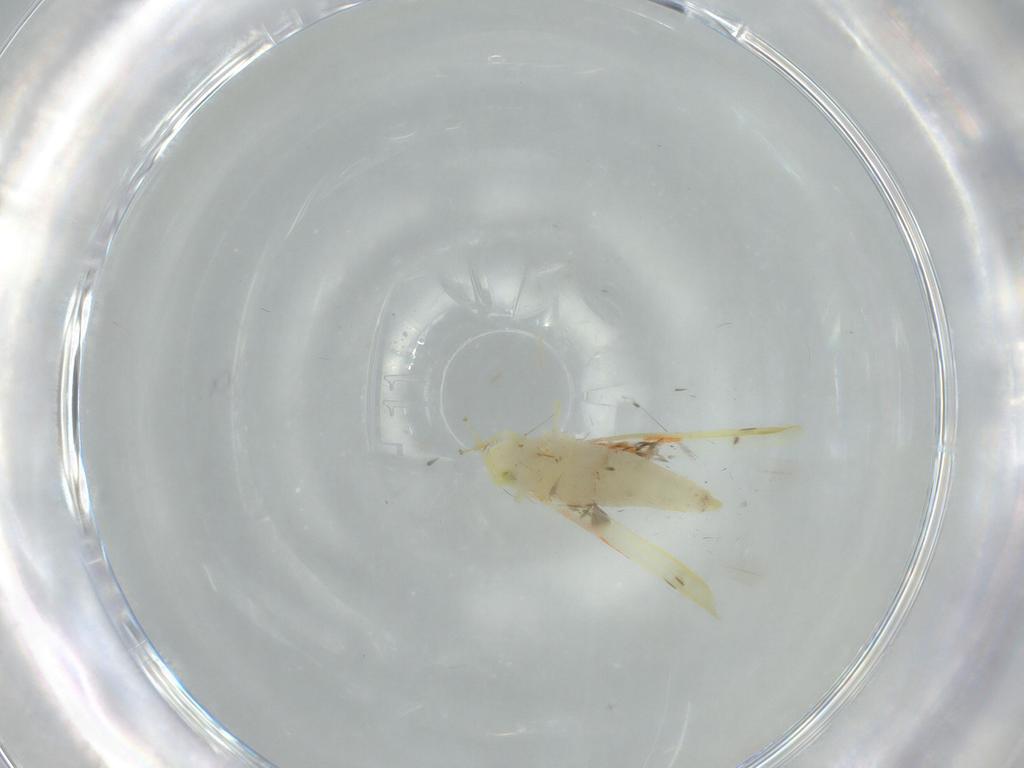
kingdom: Animalia
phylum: Arthropoda
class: Insecta
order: Hemiptera
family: Cicadellidae
